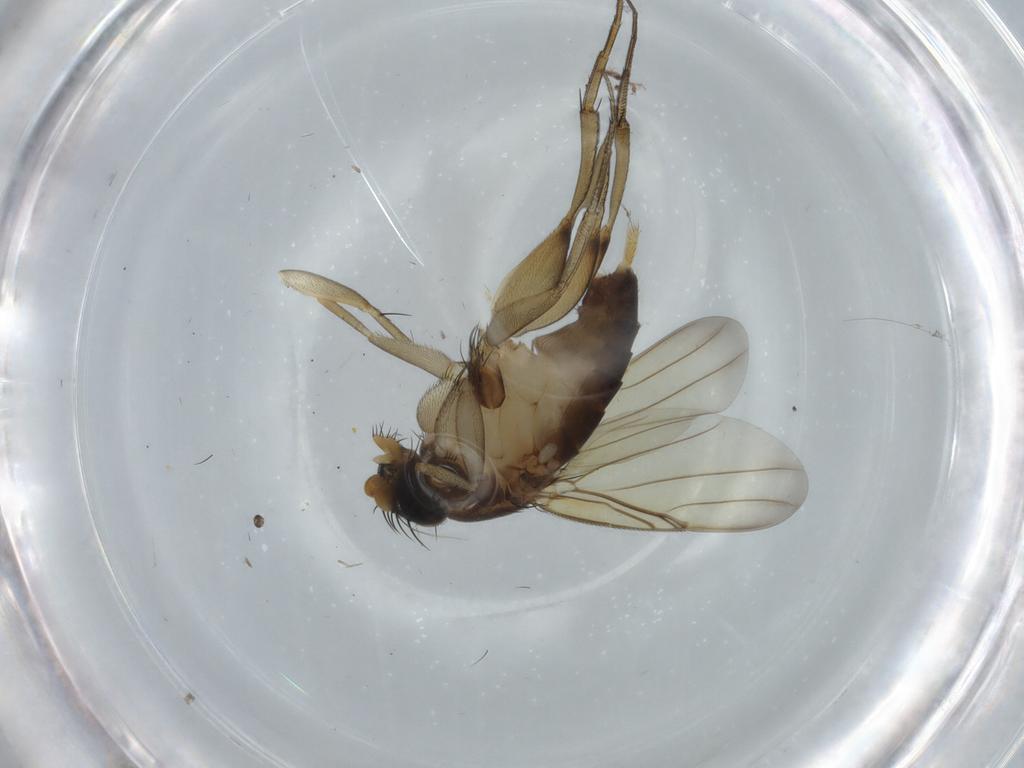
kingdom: Animalia
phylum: Arthropoda
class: Insecta
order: Diptera
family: Phoridae
